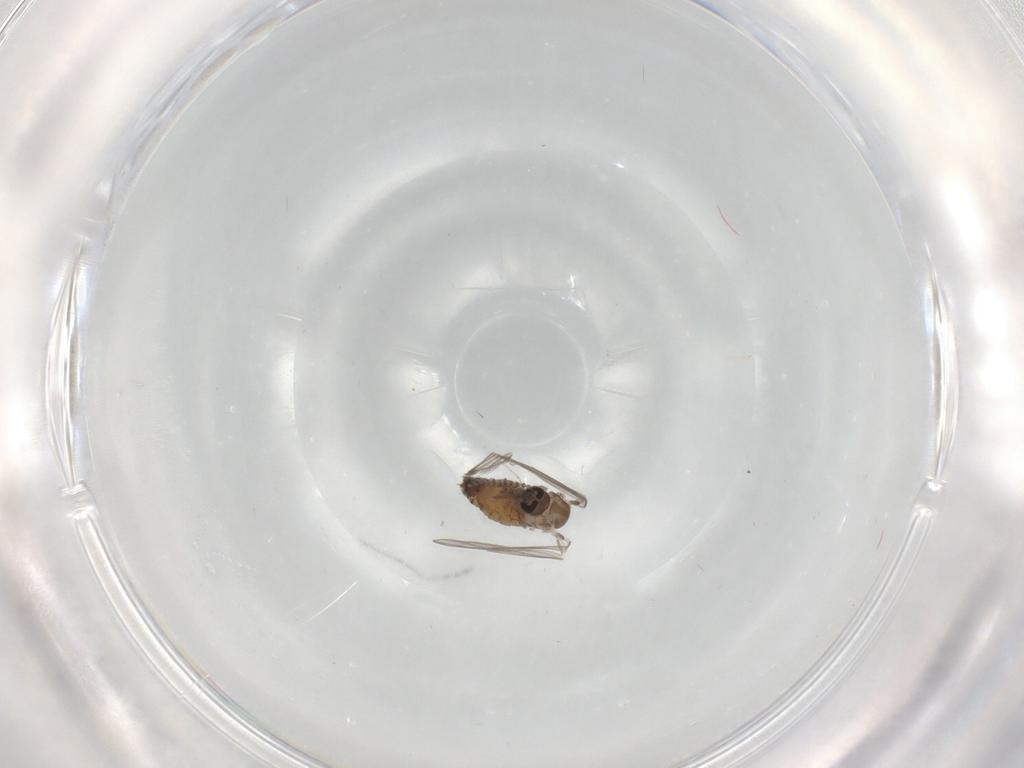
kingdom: Animalia
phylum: Arthropoda
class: Insecta
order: Diptera
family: Psychodidae
